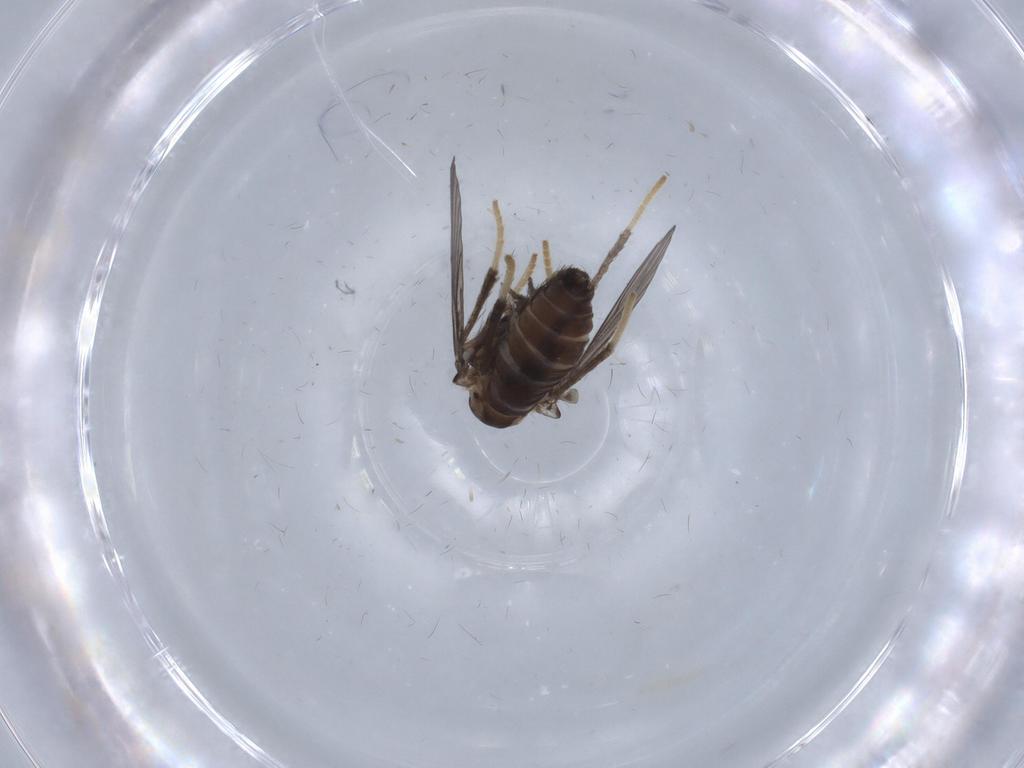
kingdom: Animalia
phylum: Arthropoda
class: Insecta
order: Diptera
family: Psychodidae
